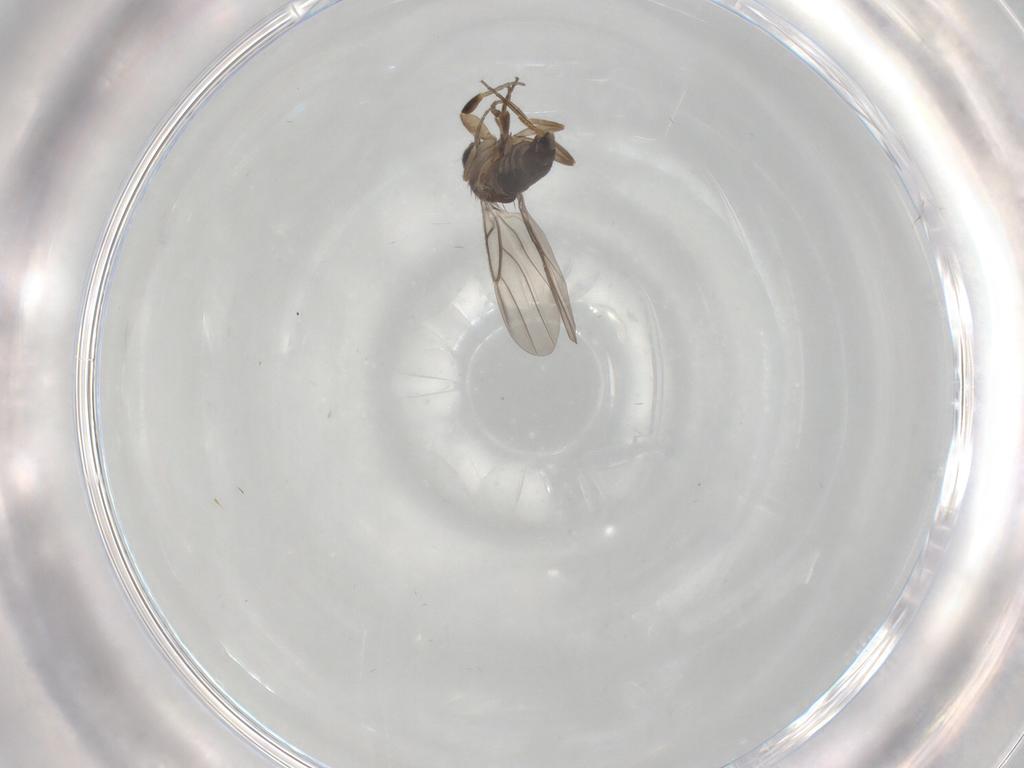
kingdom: Animalia
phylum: Arthropoda
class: Insecta
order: Diptera
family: Phoridae
